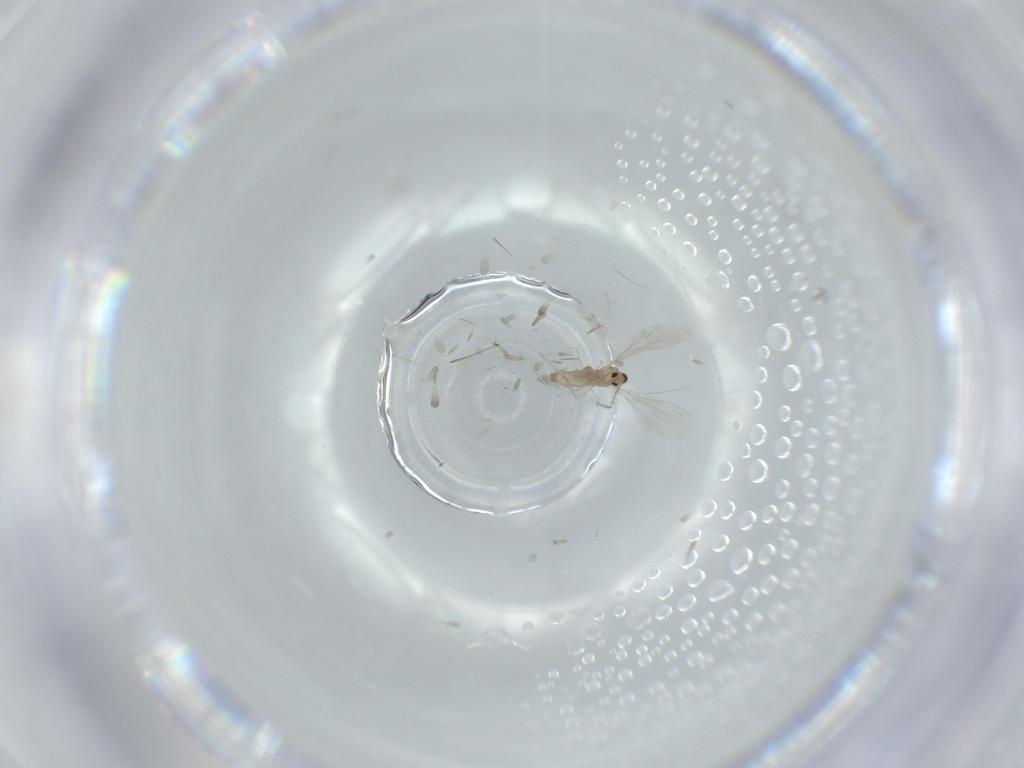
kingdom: Animalia
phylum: Arthropoda
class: Insecta
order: Diptera
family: Cecidomyiidae
